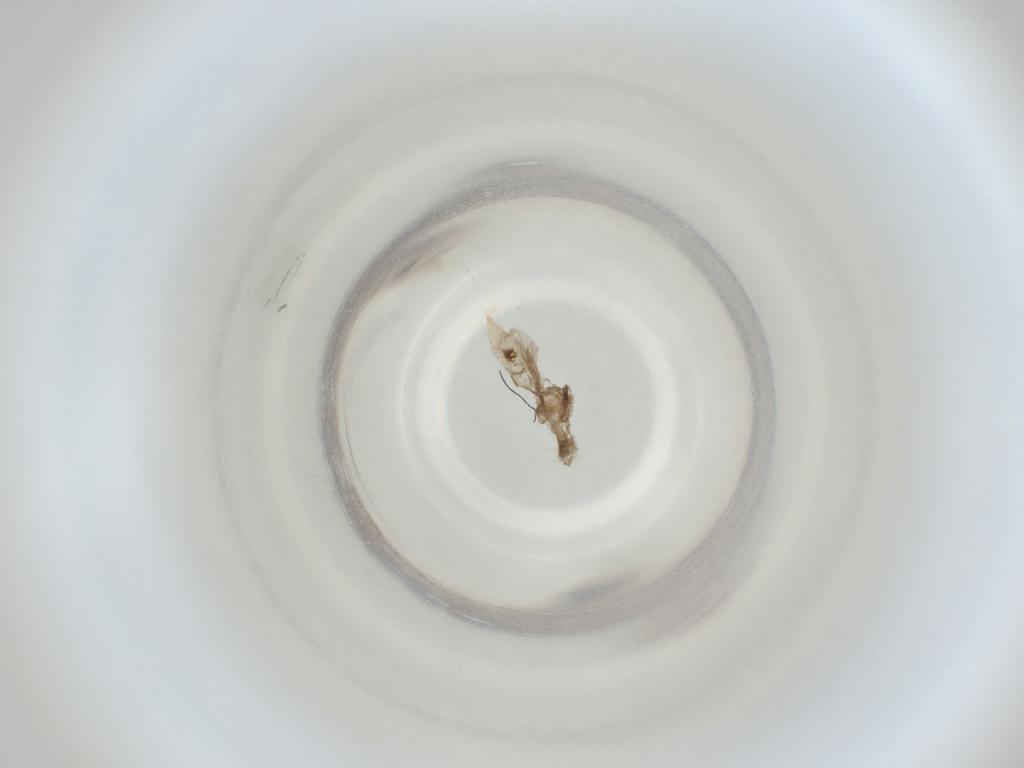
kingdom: Animalia
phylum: Arthropoda
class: Insecta
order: Diptera
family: Cecidomyiidae
